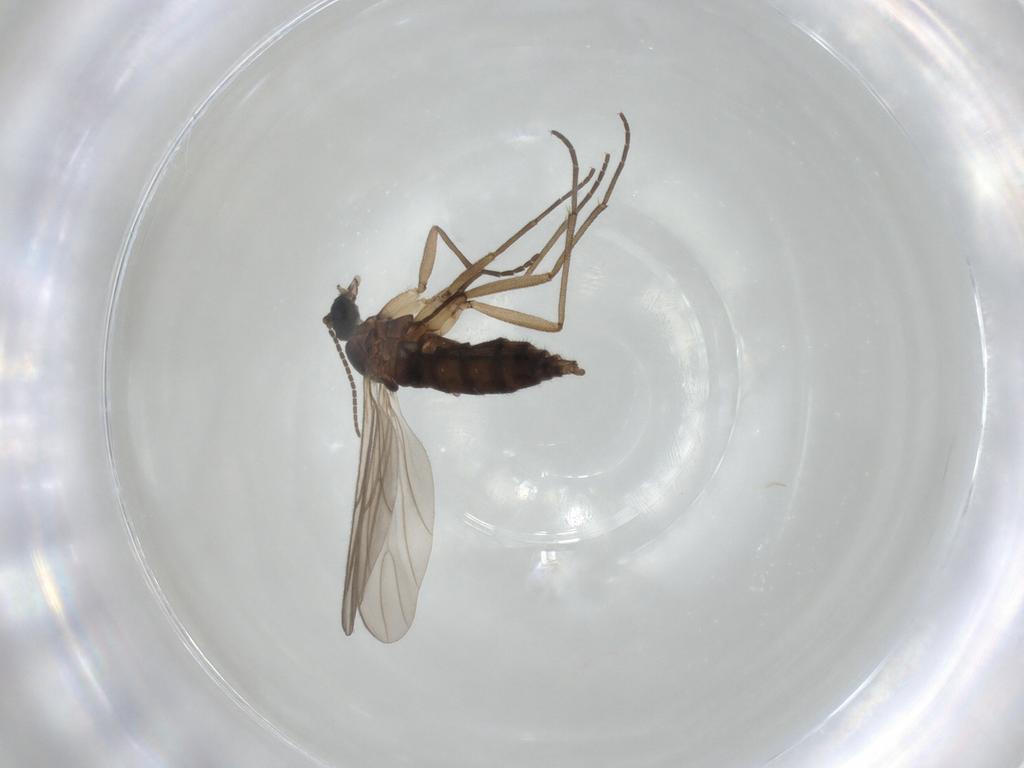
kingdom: Animalia
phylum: Arthropoda
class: Insecta
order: Diptera
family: Sciaridae
